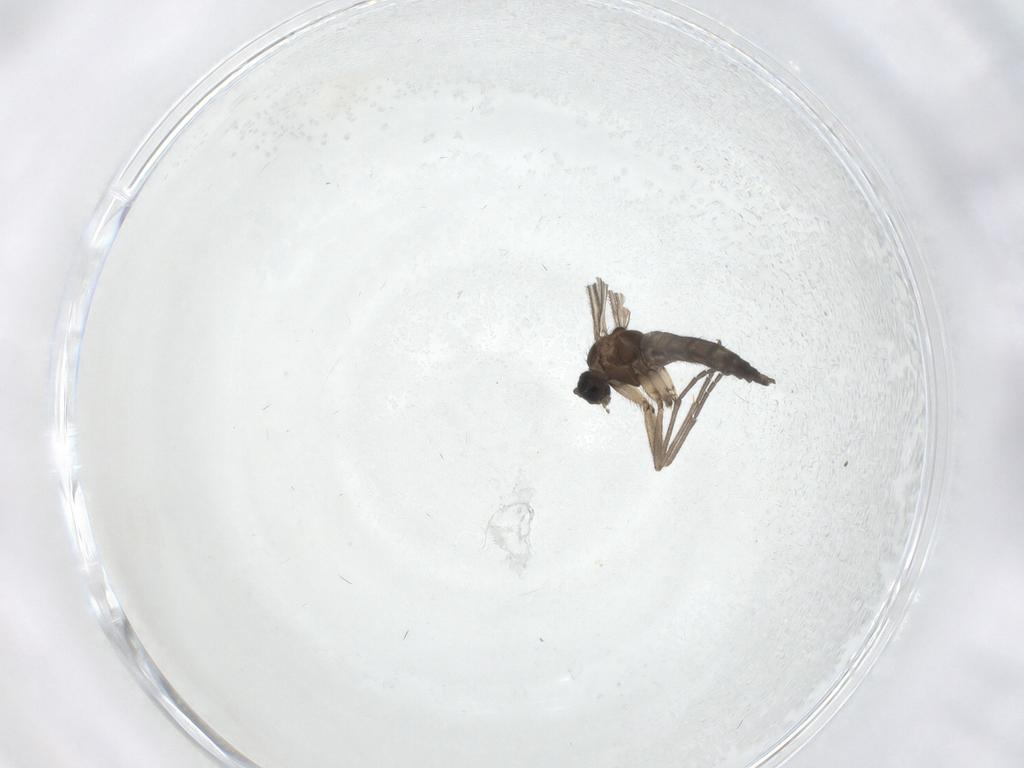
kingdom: Animalia
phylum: Arthropoda
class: Insecta
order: Diptera
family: Sciaridae
